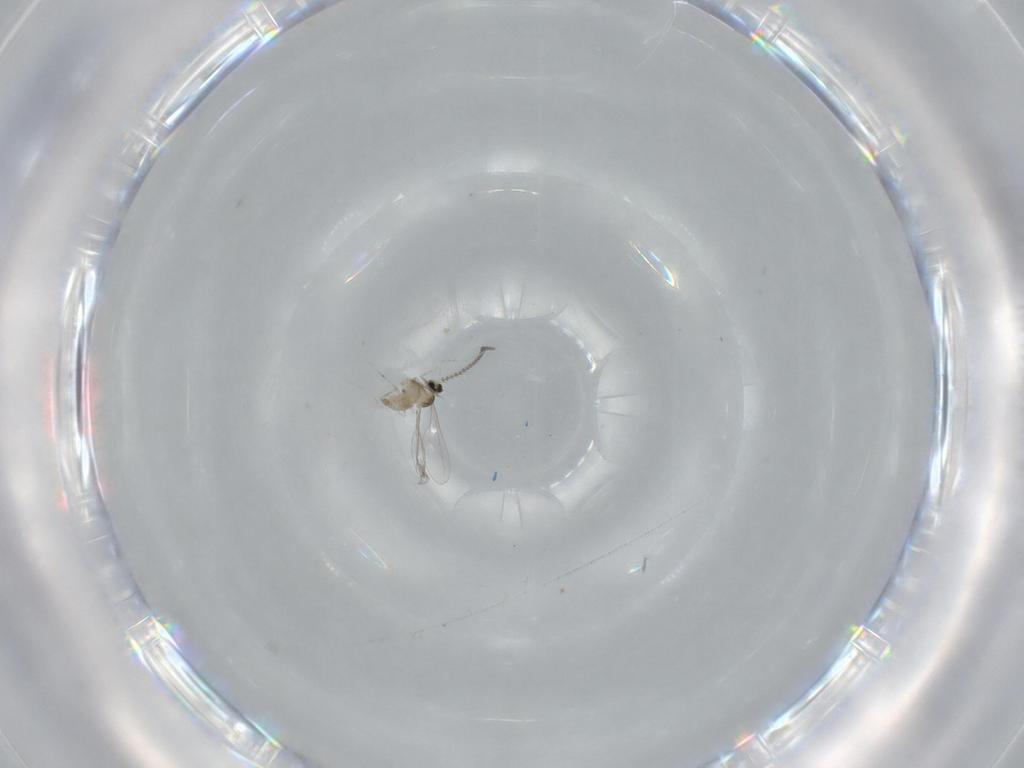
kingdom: Animalia
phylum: Arthropoda
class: Insecta
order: Diptera
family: Cecidomyiidae
